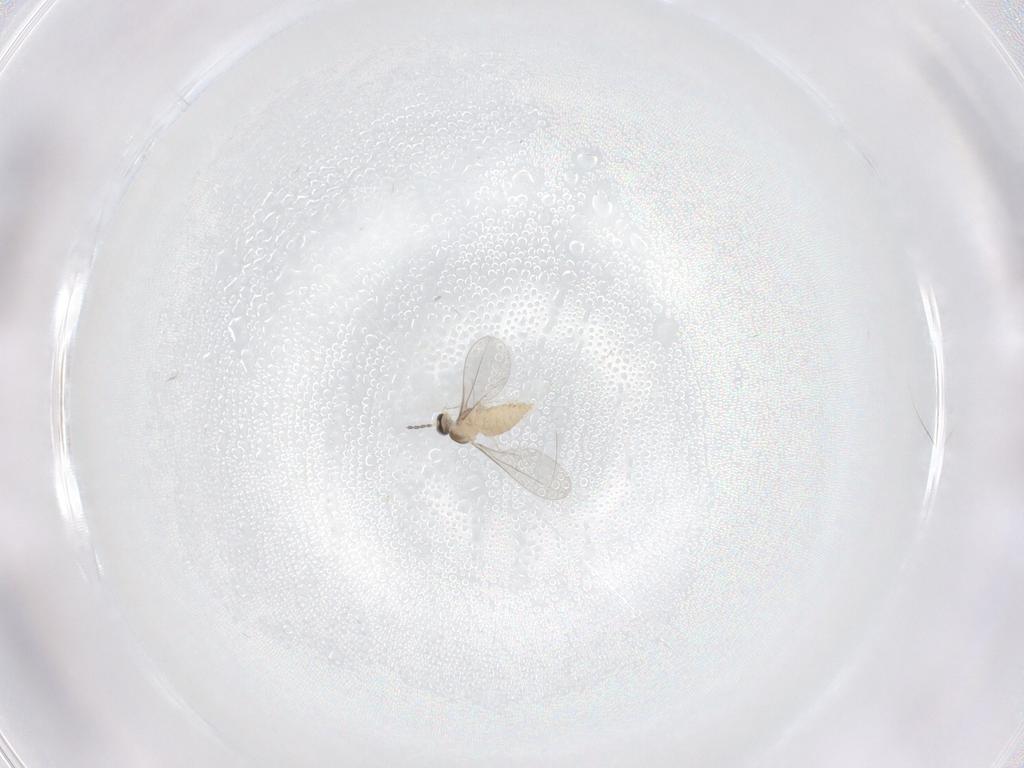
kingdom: Animalia
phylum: Arthropoda
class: Insecta
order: Diptera
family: Cecidomyiidae
